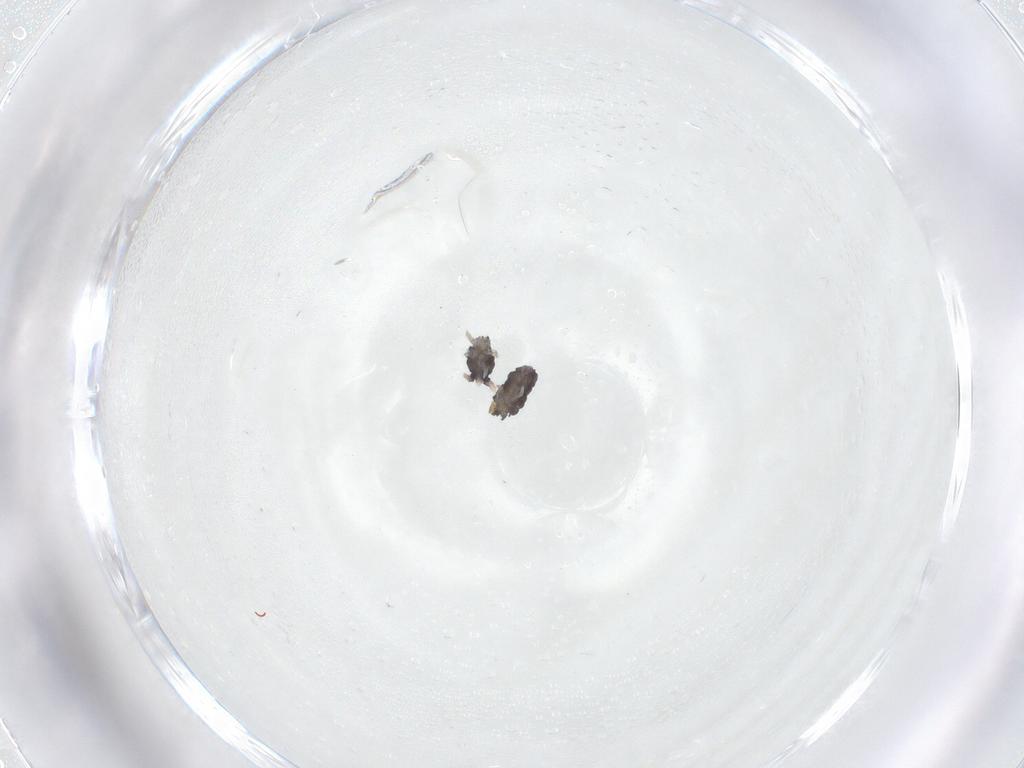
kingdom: Animalia
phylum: Arthropoda
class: Collembola
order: Poduromorpha
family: Neanuridae
